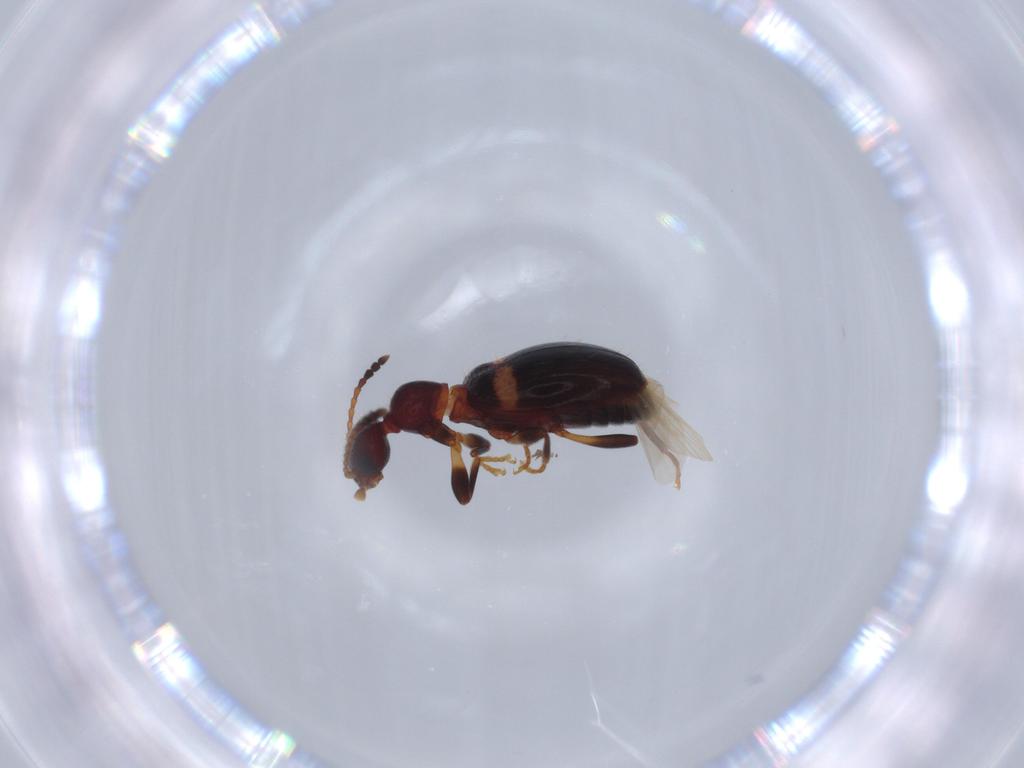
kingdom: Animalia
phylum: Arthropoda
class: Insecta
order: Coleoptera
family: Anthicidae
